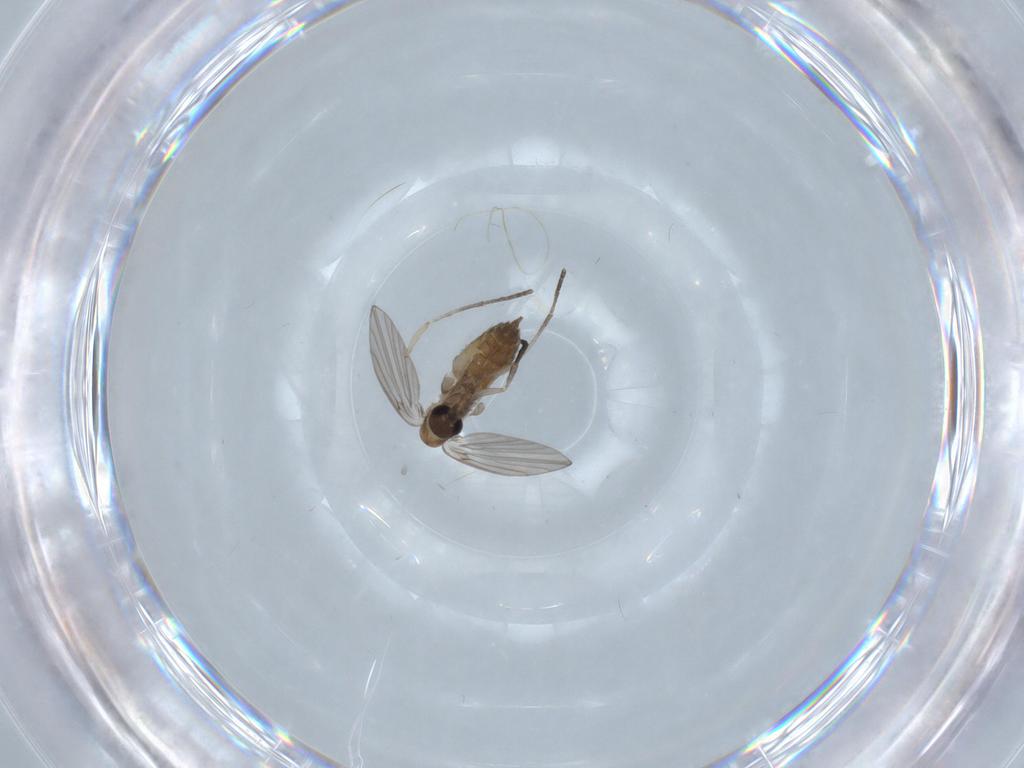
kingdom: Animalia
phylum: Arthropoda
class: Insecta
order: Diptera
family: Psychodidae
